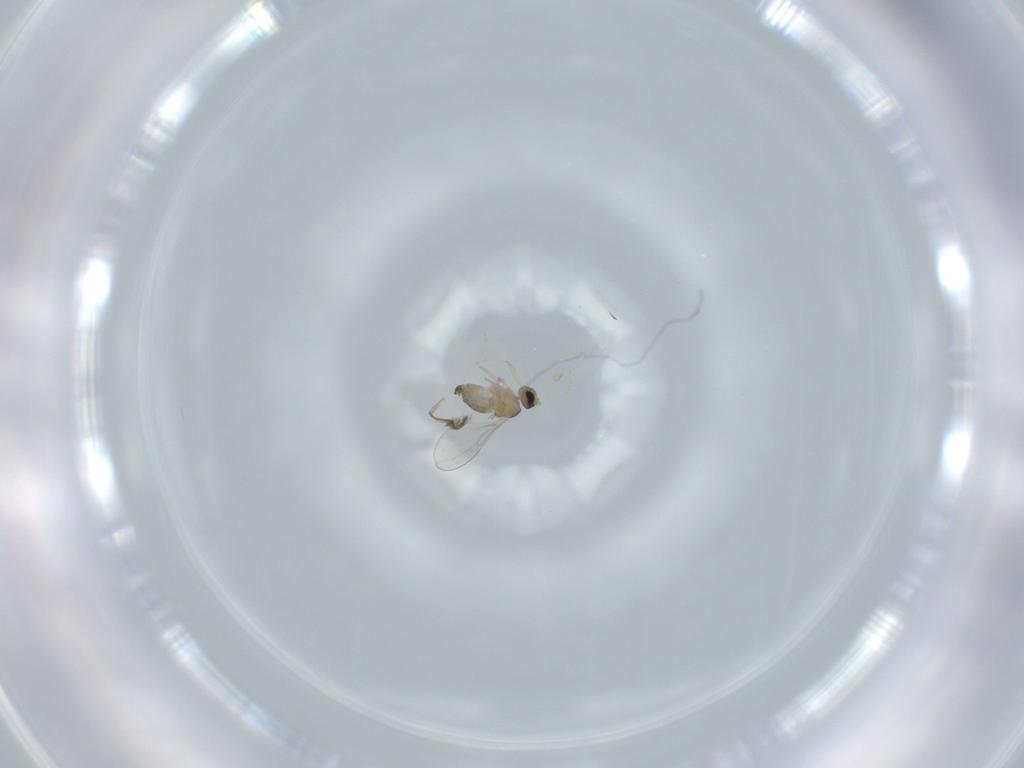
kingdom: Animalia
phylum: Arthropoda
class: Insecta
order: Diptera
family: Cecidomyiidae
